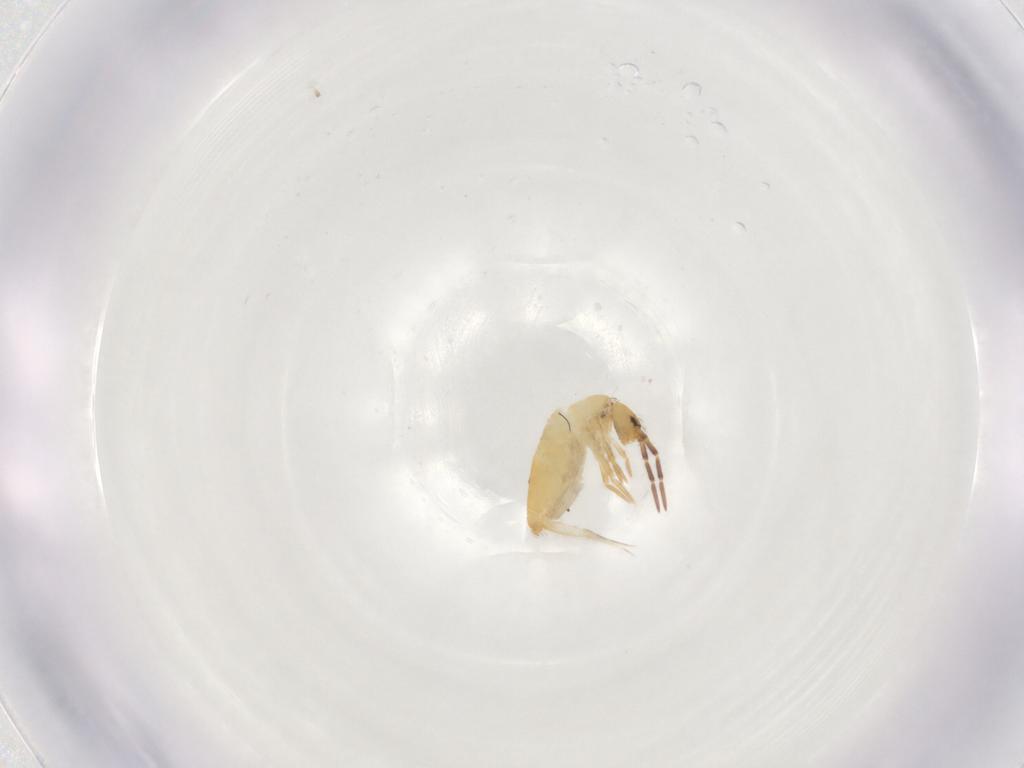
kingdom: Animalia
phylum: Arthropoda
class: Collembola
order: Entomobryomorpha
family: Entomobryidae
